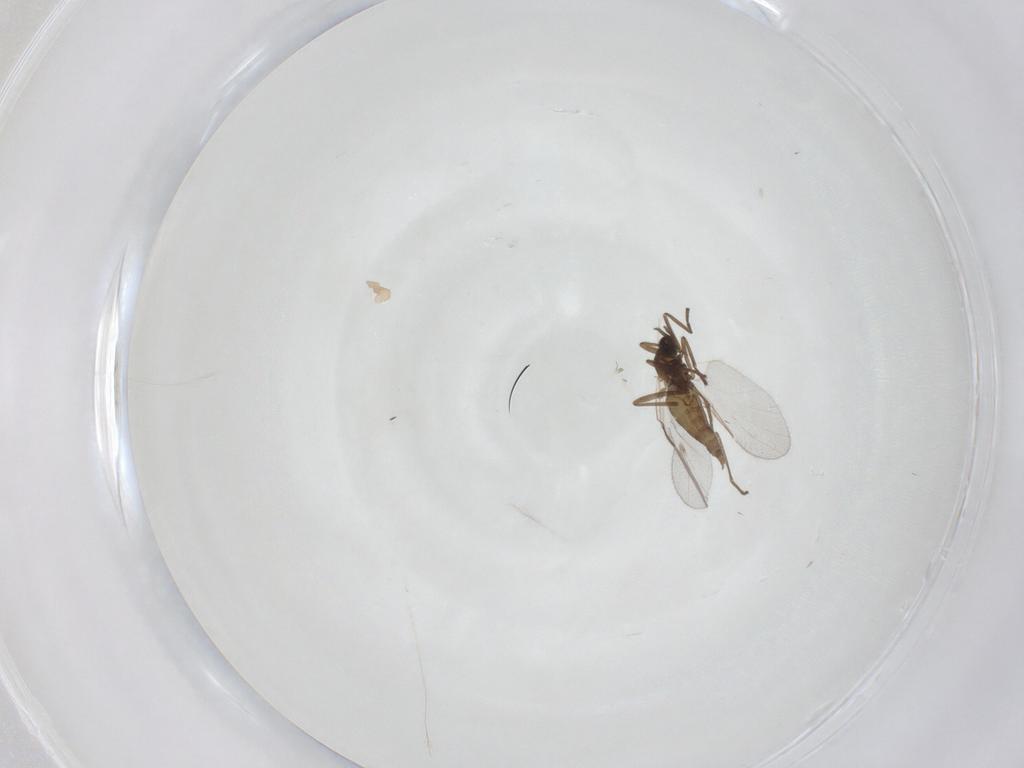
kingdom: Animalia
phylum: Arthropoda
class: Insecta
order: Diptera
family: Cecidomyiidae
